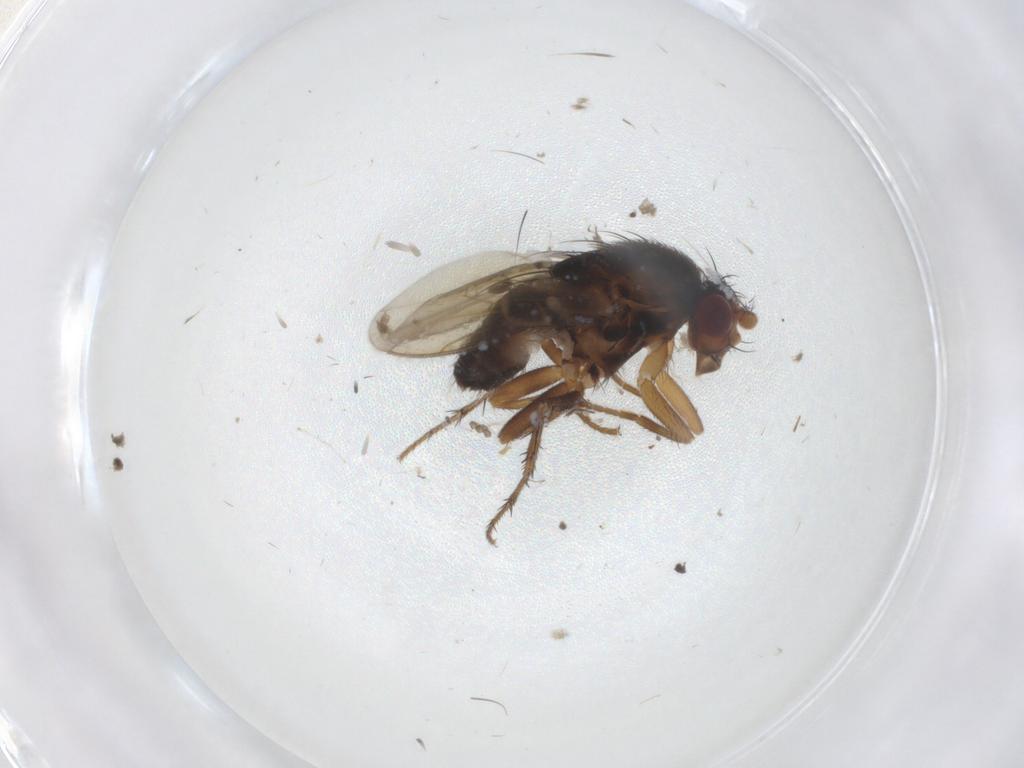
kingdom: Animalia
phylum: Arthropoda
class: Insecta
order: Diptera
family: Sphaeroceridae
